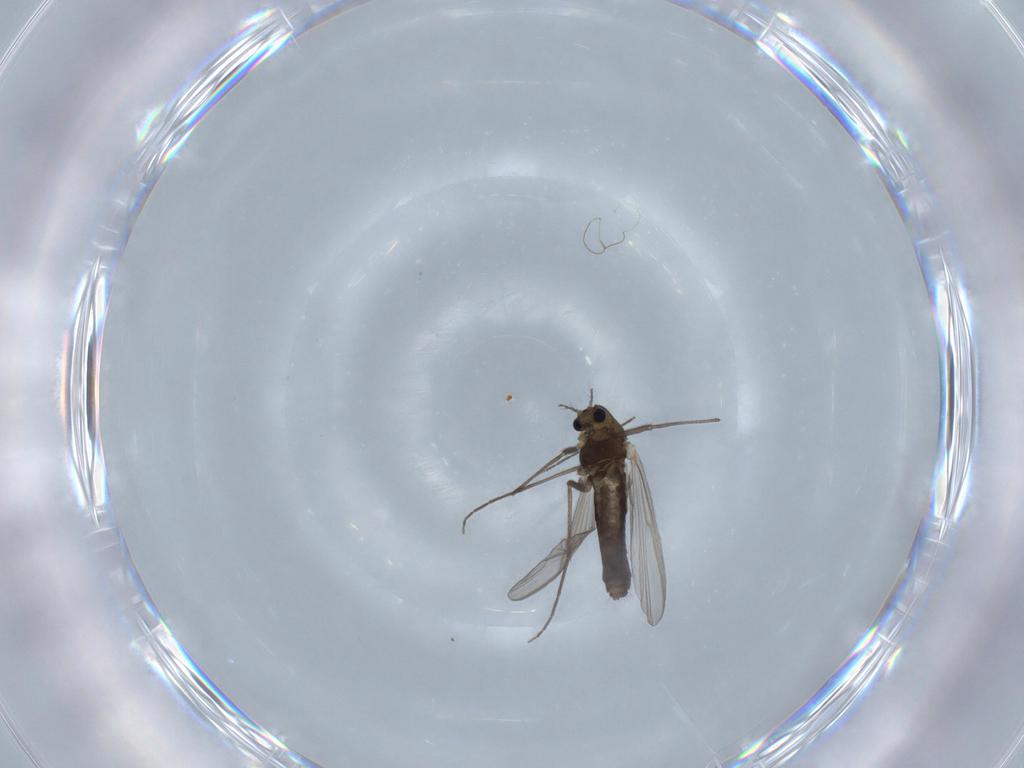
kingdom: Animalia
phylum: Arthropoda
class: Insecta
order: Diptera
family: Chironomidae
